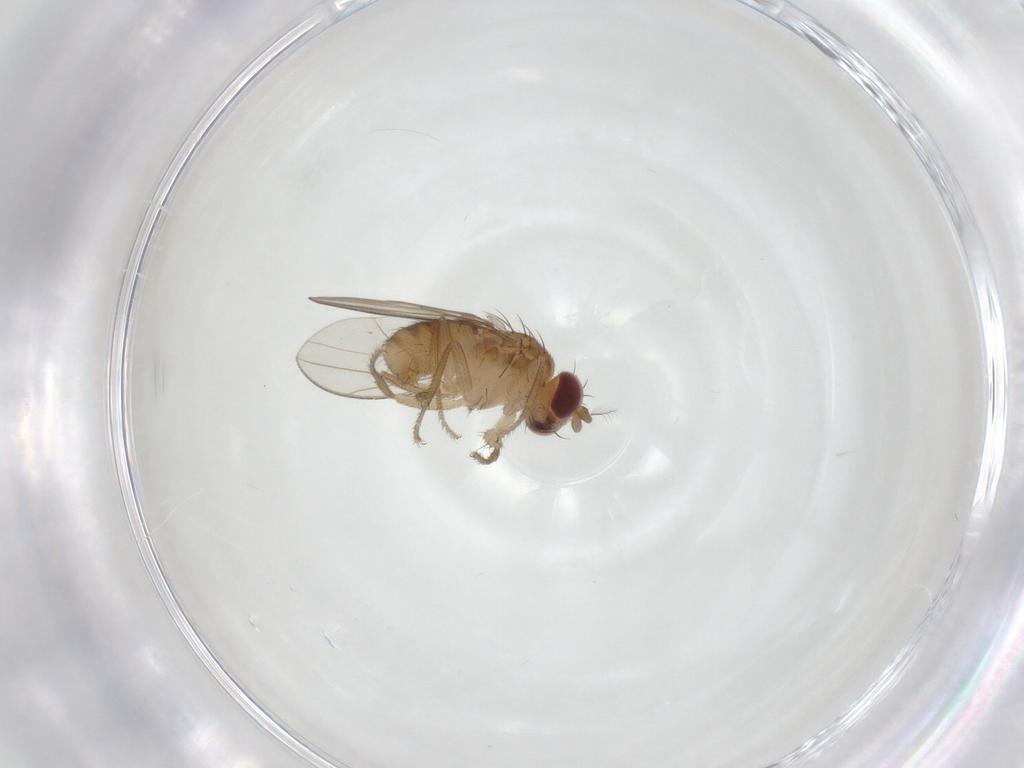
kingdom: Animalia
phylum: Arthropoda
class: Insecta
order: Diptera
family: Drosophilidae
